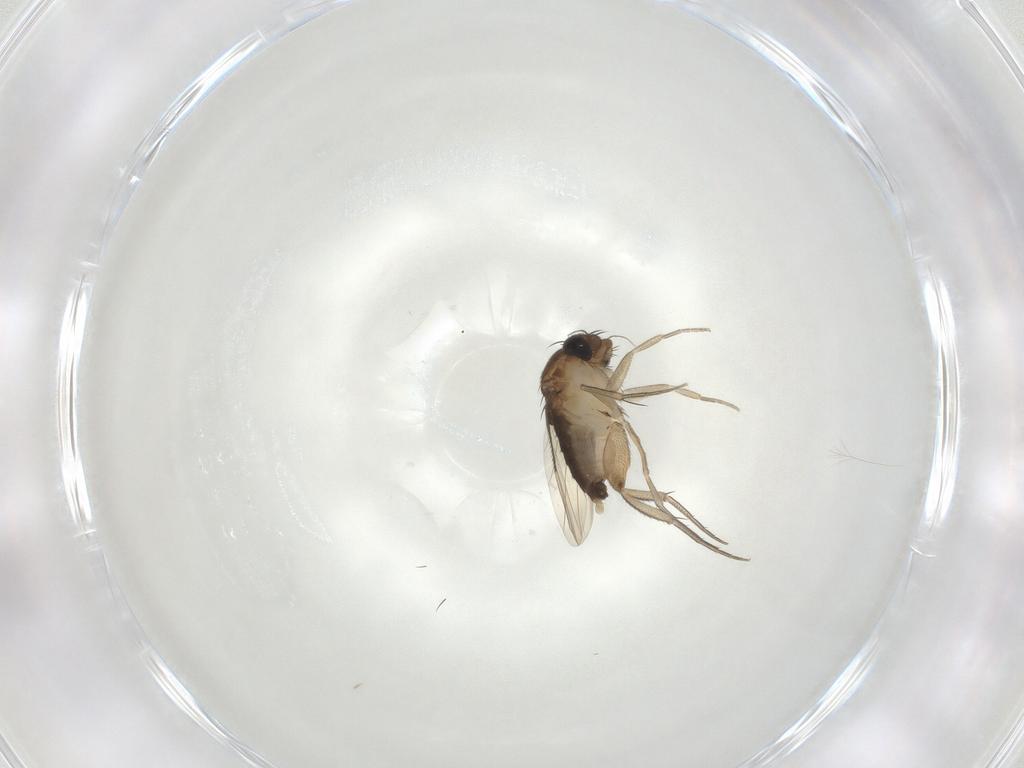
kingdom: Animalia
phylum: Arthropoda
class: Insecta
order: Diptera
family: Phoridae
